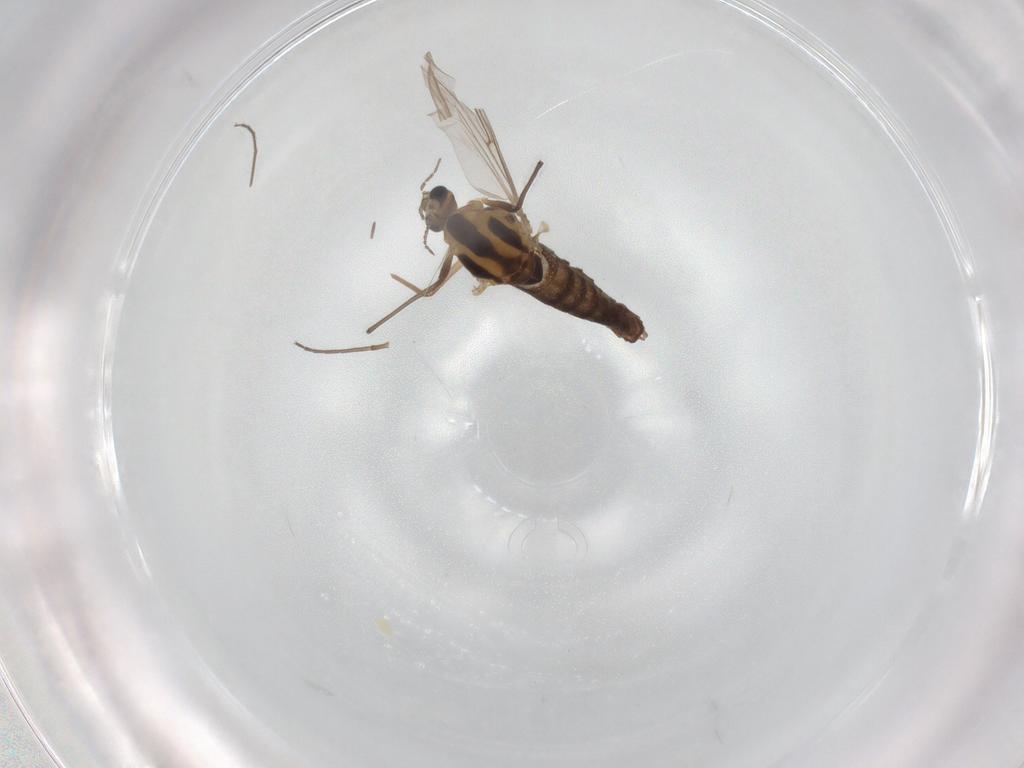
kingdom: Animalia
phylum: Arthropoda
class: Insecta
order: Diptera
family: Chironomidae
